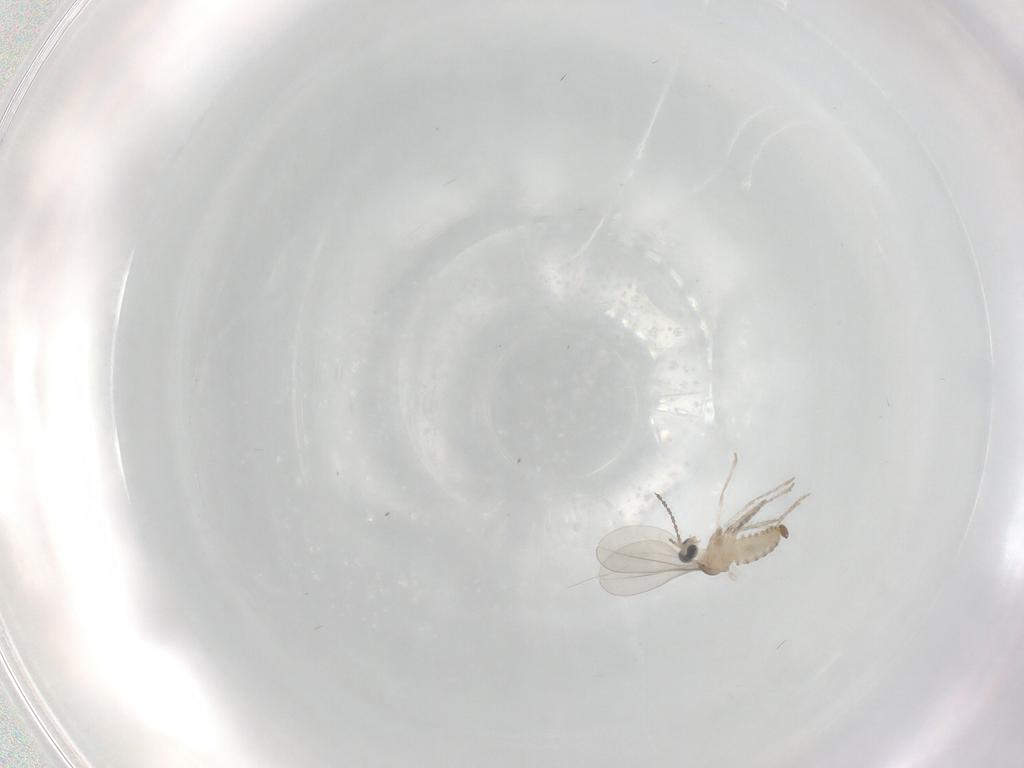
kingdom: Animalia
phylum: Arthropoda
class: Insecta
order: Diptera
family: Cecidomyiidae
